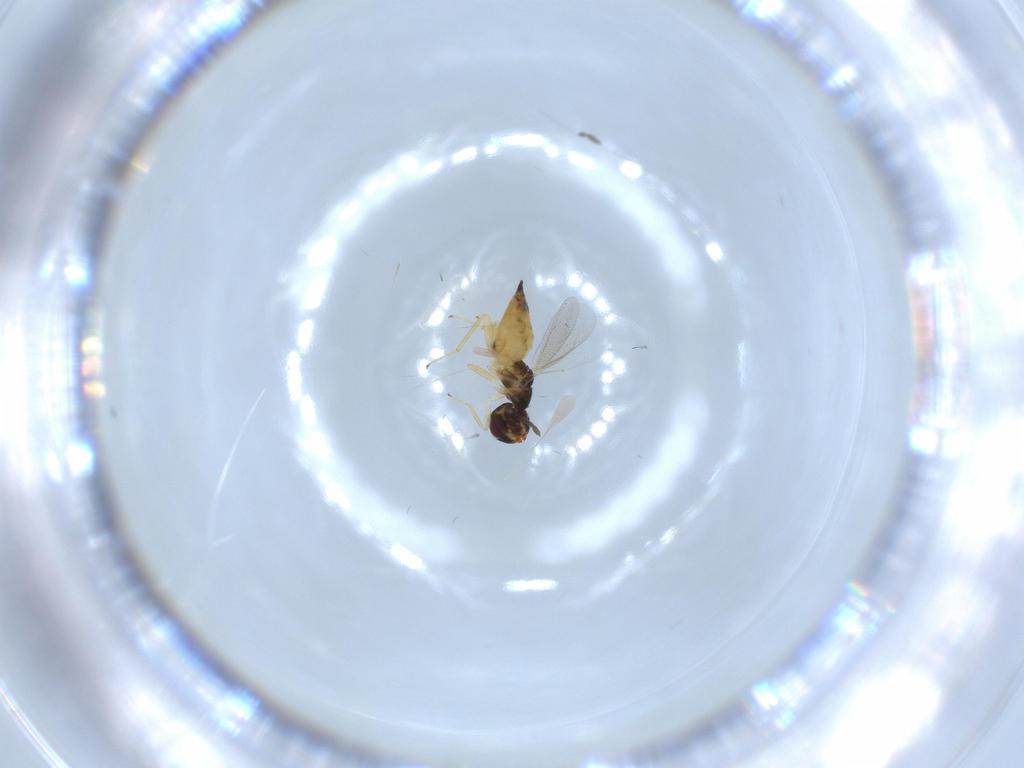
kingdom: Animalia
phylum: Arthropoda
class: Insecta
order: Hymenoptera
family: Eulophidae
